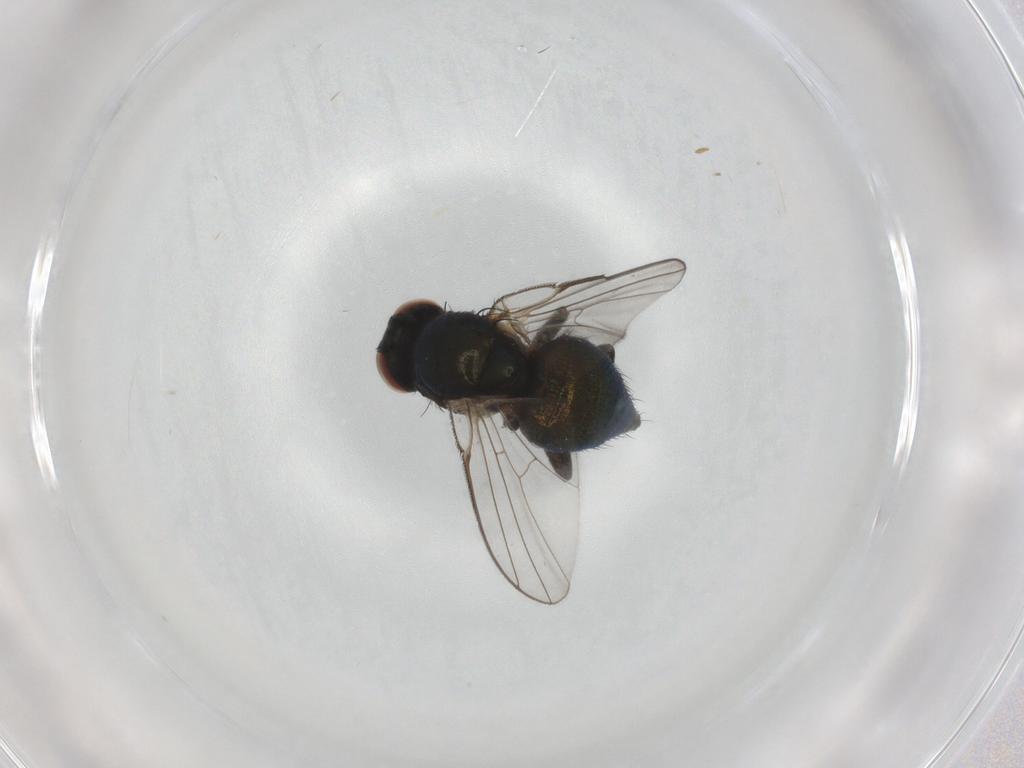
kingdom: Animalia
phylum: Arthropoda
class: Insecta
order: Diptera
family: Agromyzidae
